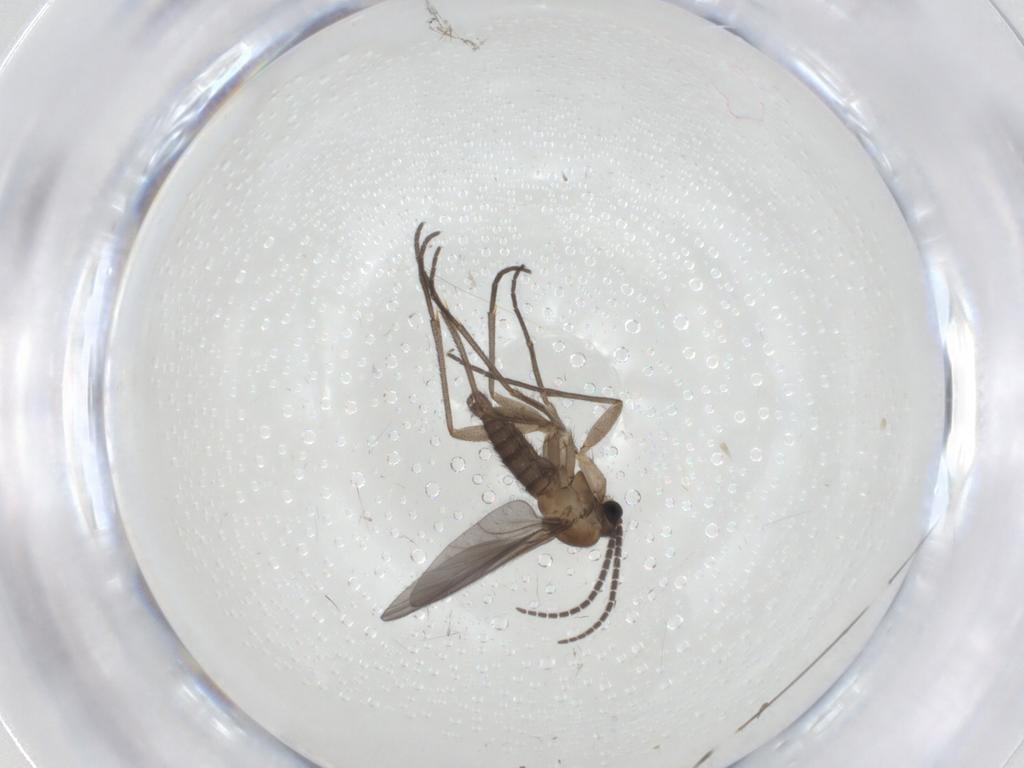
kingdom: Animalia
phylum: Arthropoda
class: Insecta
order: Diptera
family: Sciaridae
